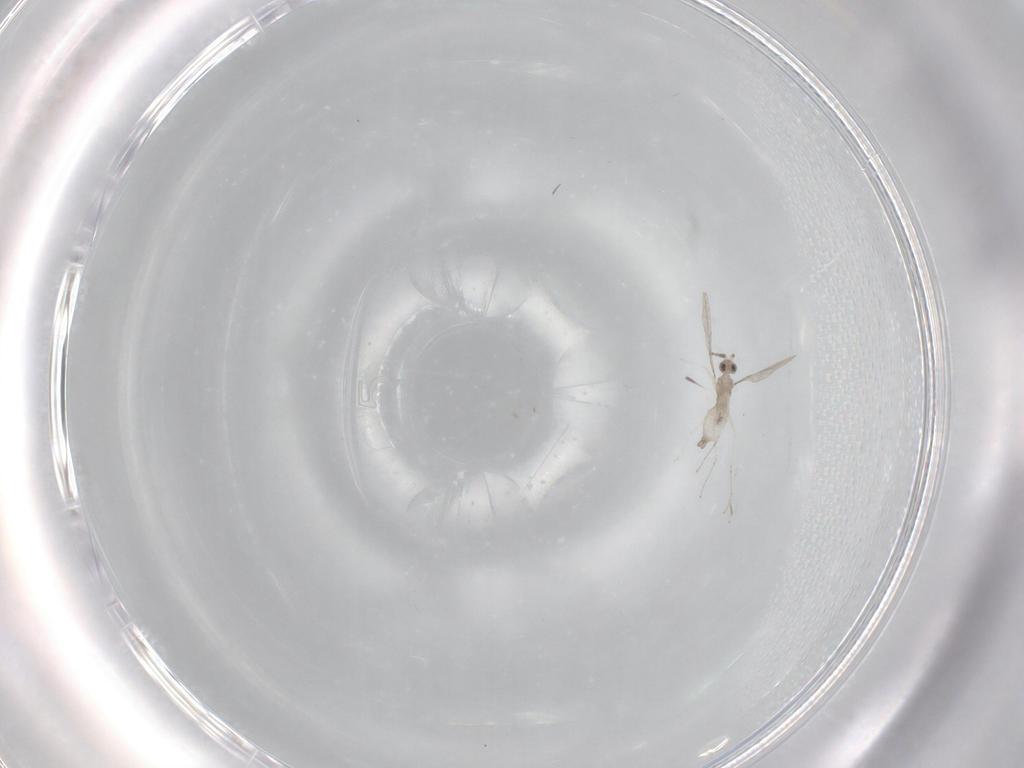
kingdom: Animalia
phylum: Arthropoda
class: Insecta
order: Diptera
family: Cecidomyiidae
